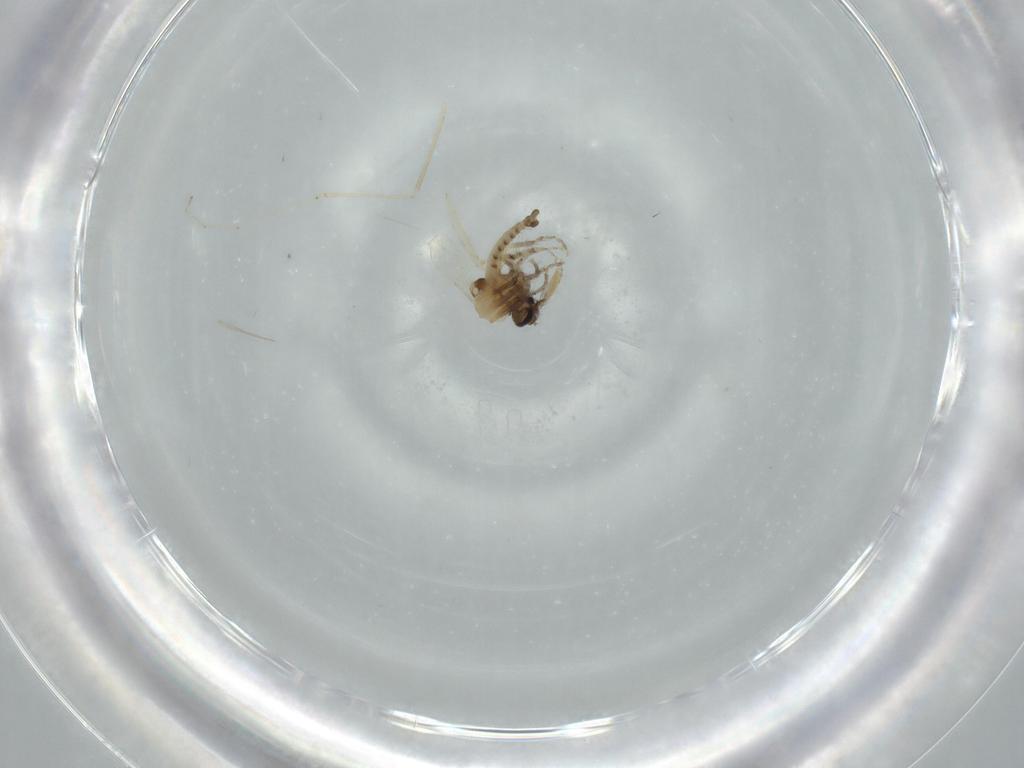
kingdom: Animalia
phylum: Arthropoda
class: Insecta
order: Diptera
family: Ceratopogonidae
